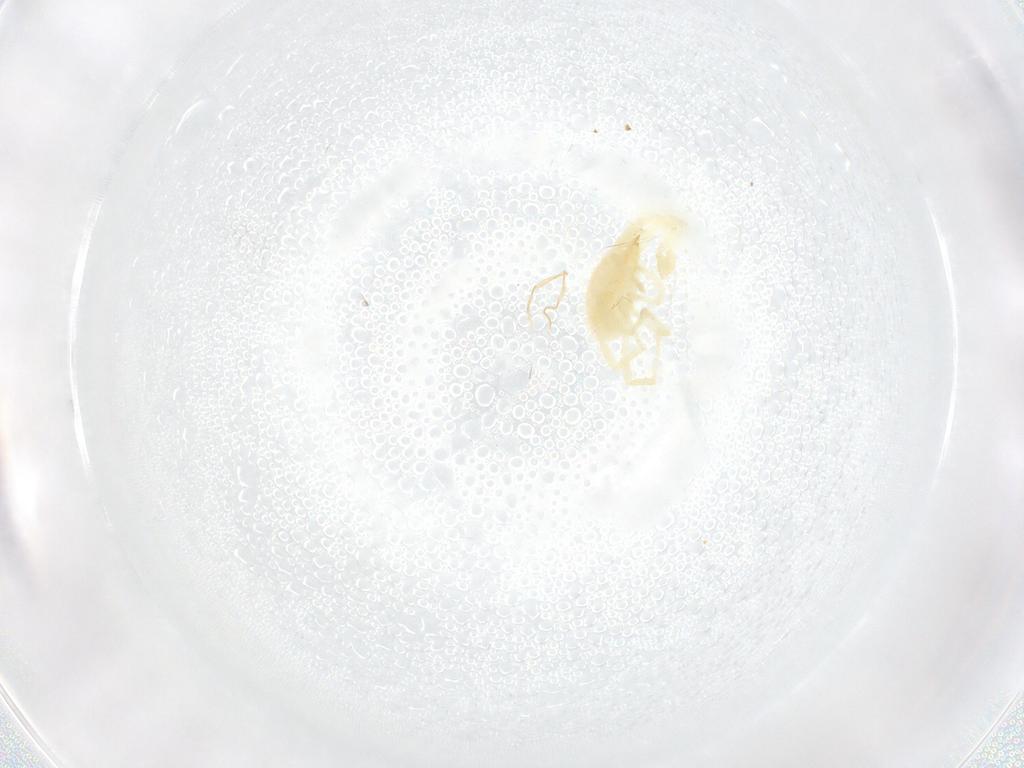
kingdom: Animalia
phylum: Arthropoda
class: Arachnida
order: Trombidiformes
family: Erythraeidae
